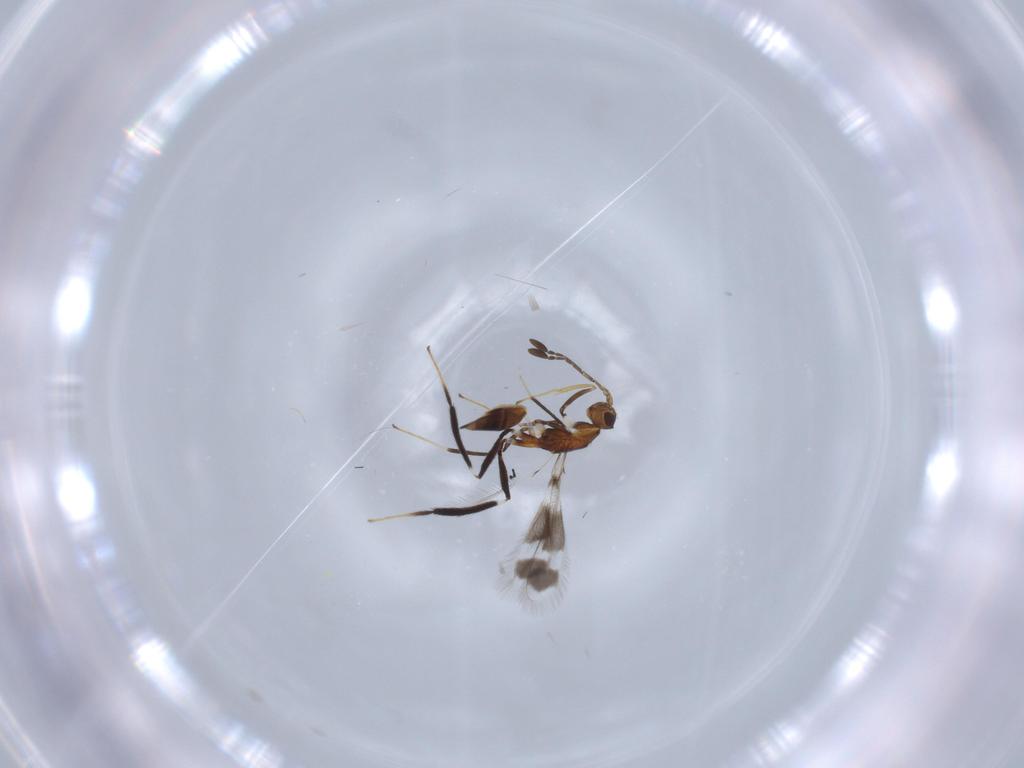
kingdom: Animalia
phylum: Arthropoda
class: Insecta
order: Hymenoptera
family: Mymaridae
